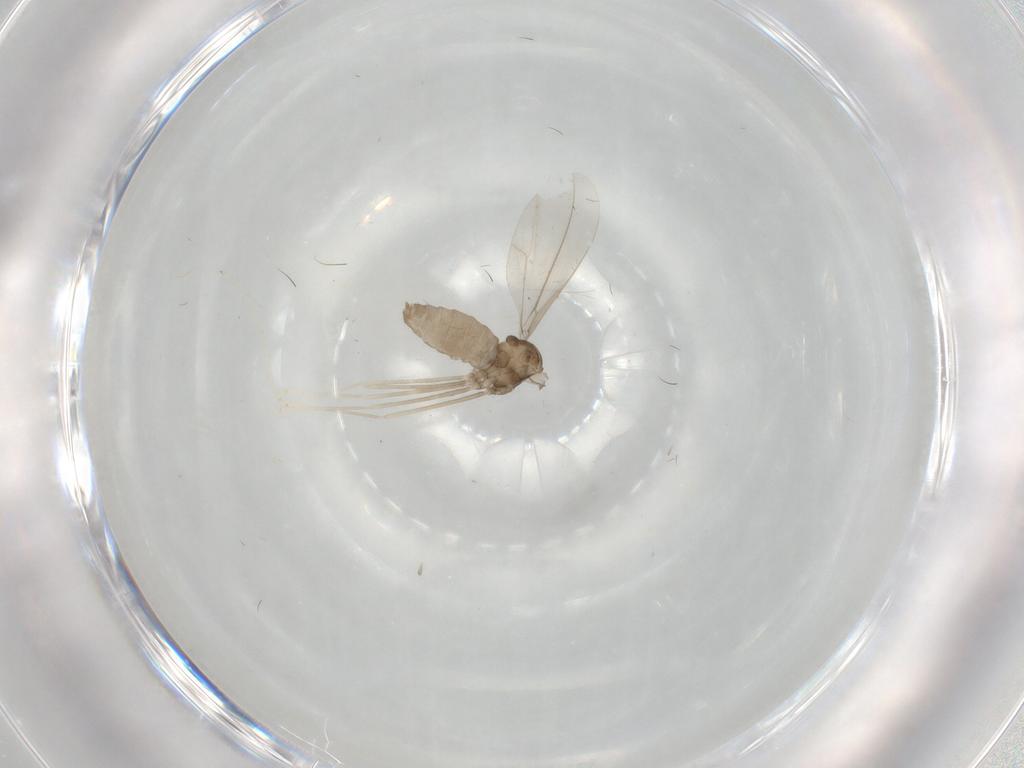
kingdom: Animalia
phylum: Arthropoda
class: Insecta
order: Diptera
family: Cecidomyiidae
